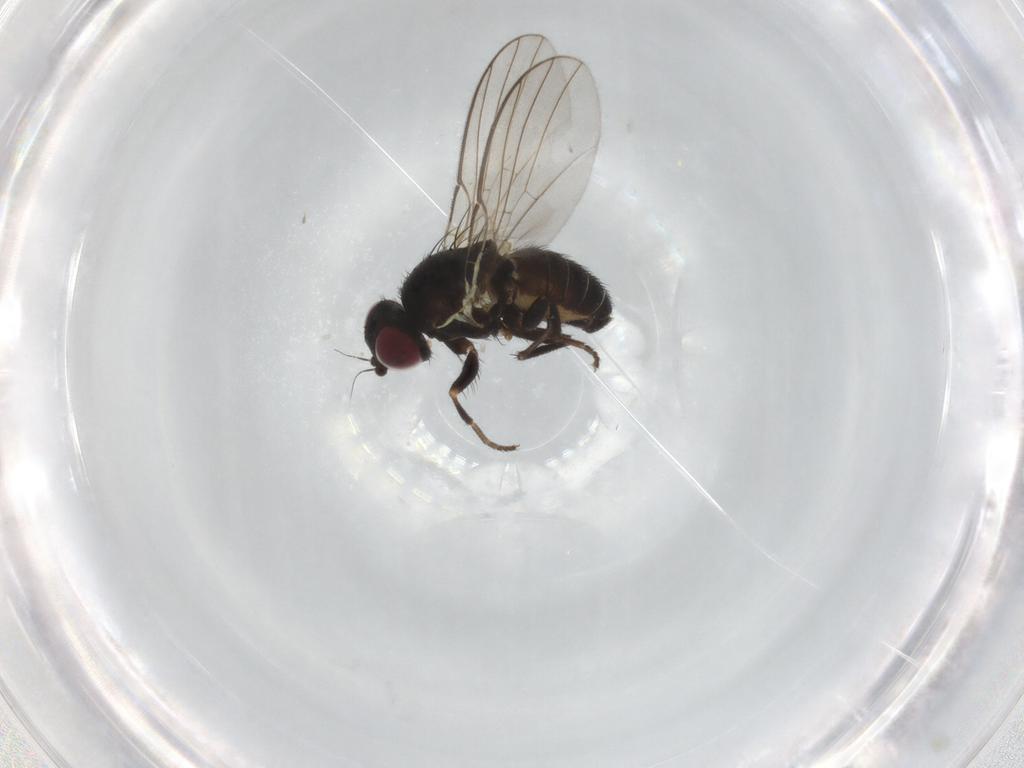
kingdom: Animalia
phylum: Arthropoda
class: Insecta
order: Diptera
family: Agromyzidae
